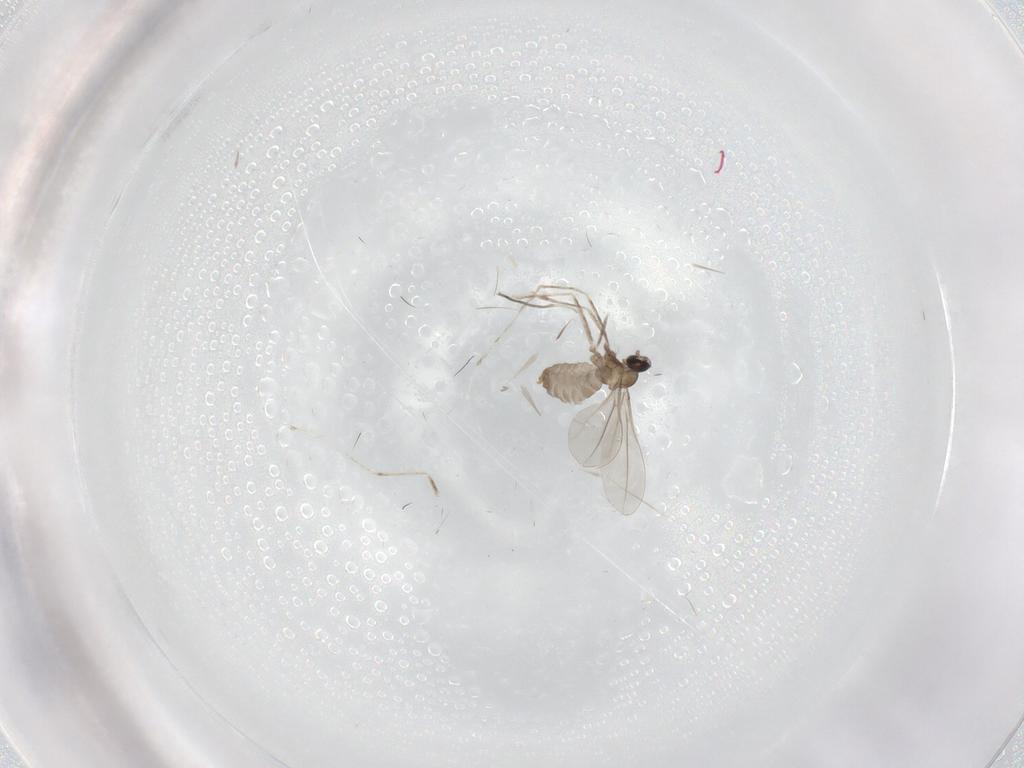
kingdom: Animalia
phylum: Arthropoda
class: Insecta
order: Diptera
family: Cecidomyiidae
